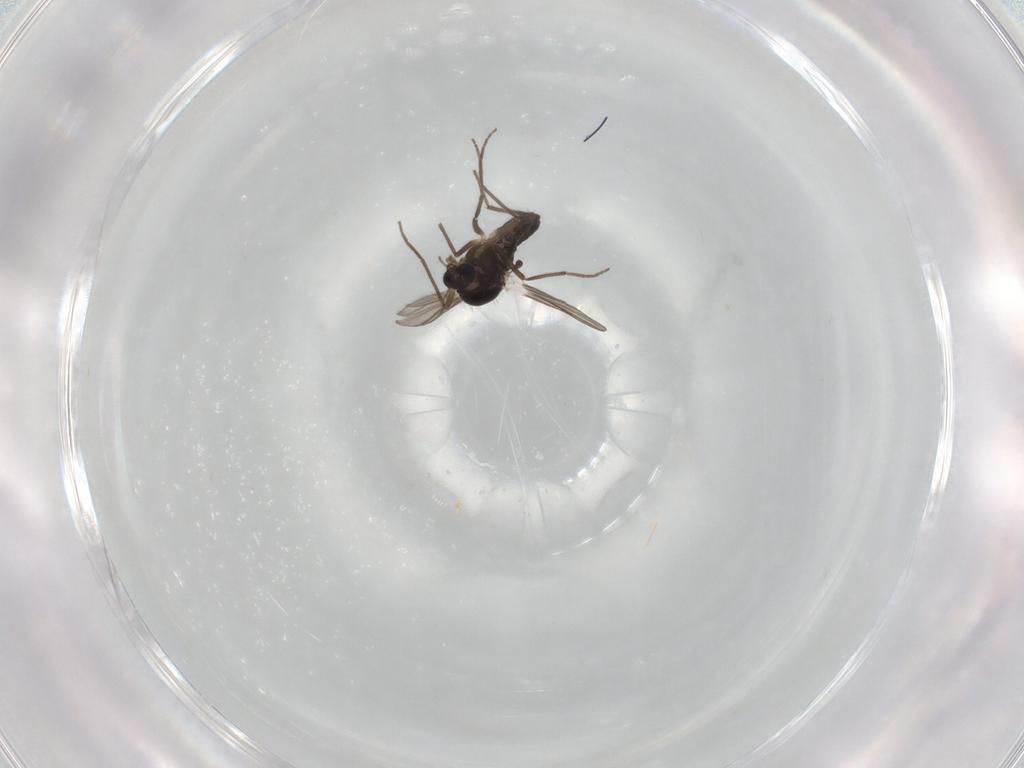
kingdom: Animalia
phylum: Arthropoda
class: Insecta
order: Diptera
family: Chironomidae
